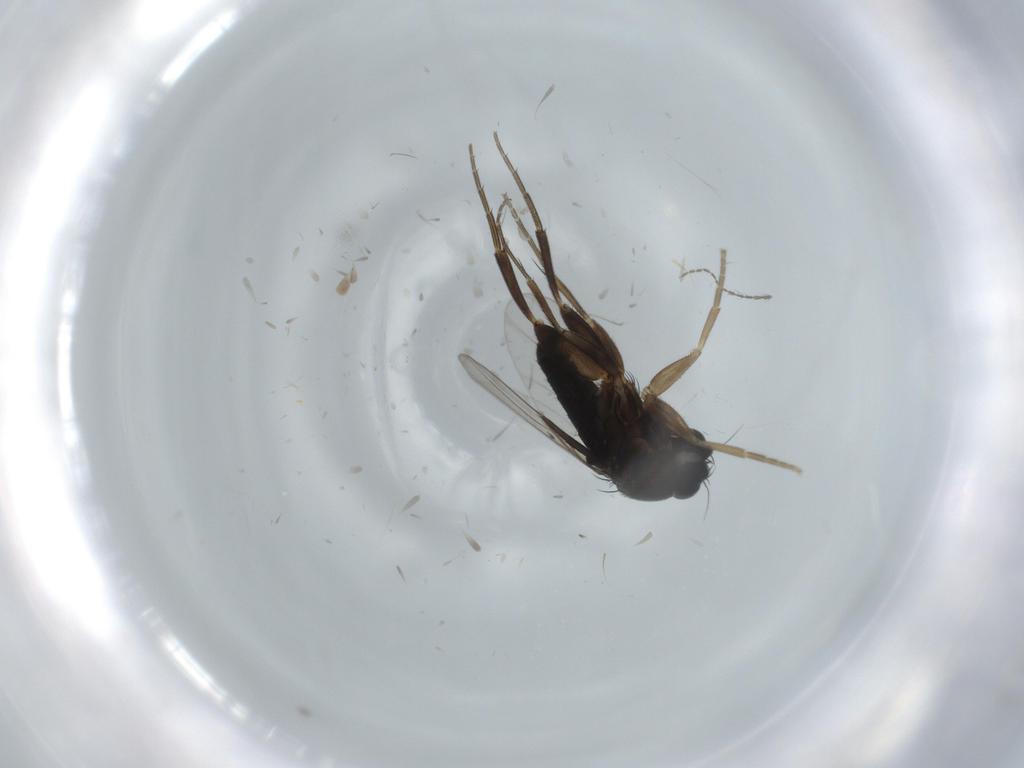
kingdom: Animalia
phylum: Arthropoda
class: Insecta
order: Diptera
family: Phoridae
